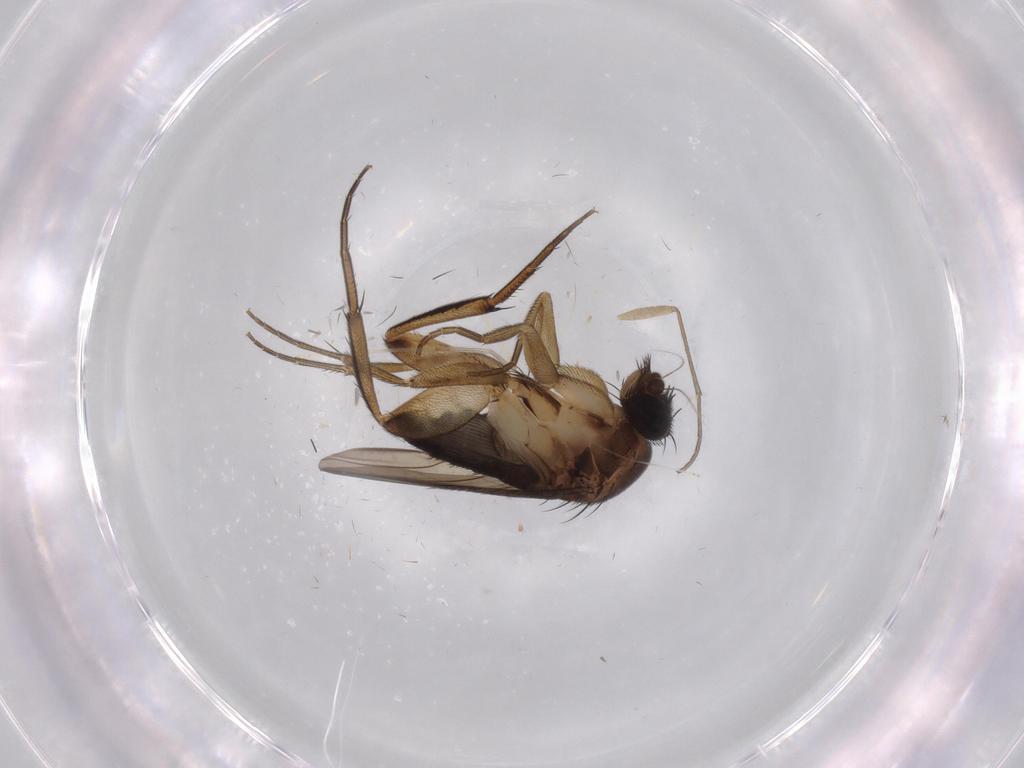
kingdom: Animalia
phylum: Arthropoda
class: Insecta
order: Diptera
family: Phoridae
